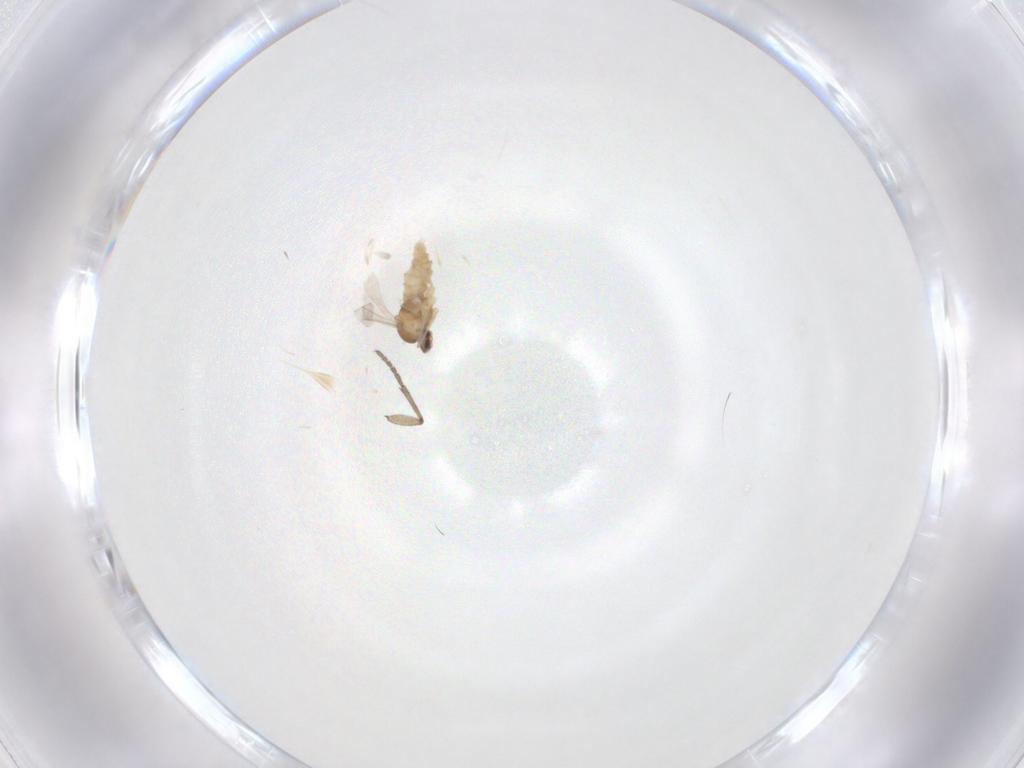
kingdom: Animalia
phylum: Arthropoda
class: Insecta
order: Diptera
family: Sciaridae
